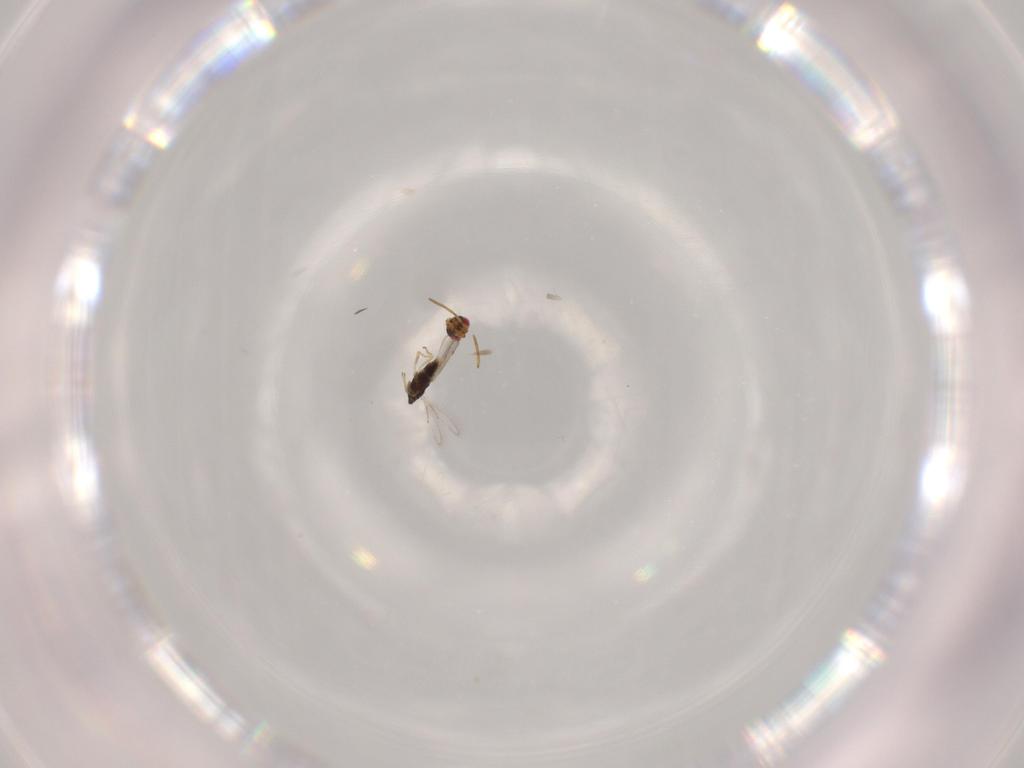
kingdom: Animalia
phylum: Arthropoda
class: Insecta
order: Hymenoptera
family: Azotidae
